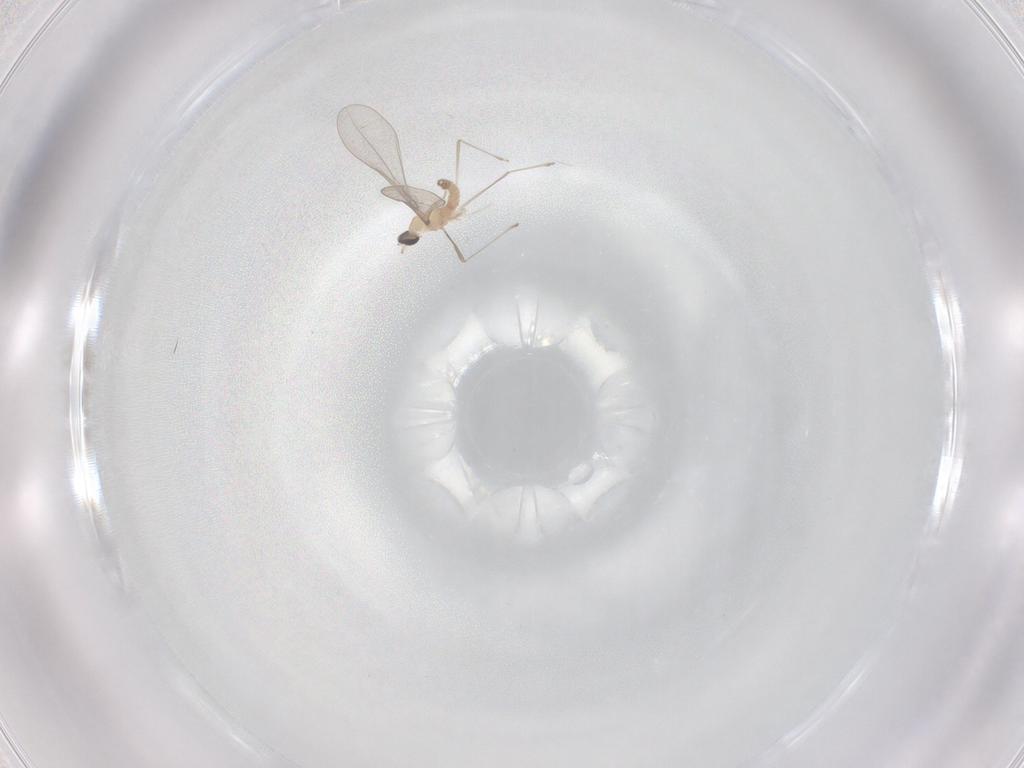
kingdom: Animalia
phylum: Arthropoda
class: Insecta
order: Diptera
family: Cecidomyiidae
